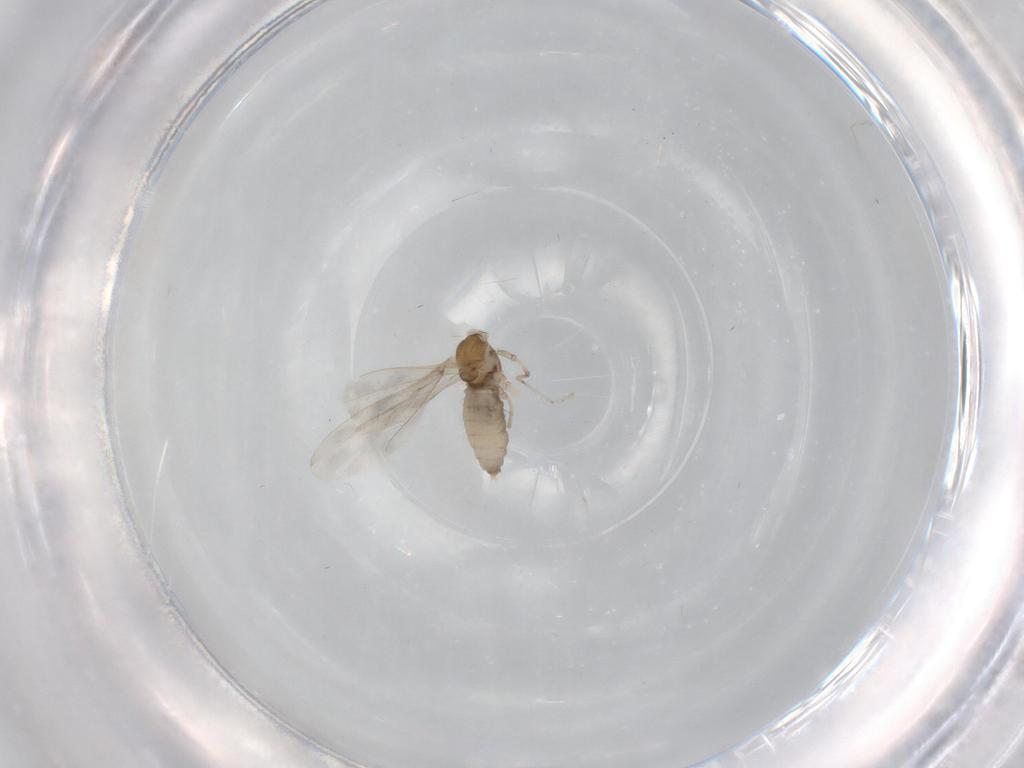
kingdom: Animalia
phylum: Arthropoda
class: Insecta
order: Diptera
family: Cecidomyiidae
